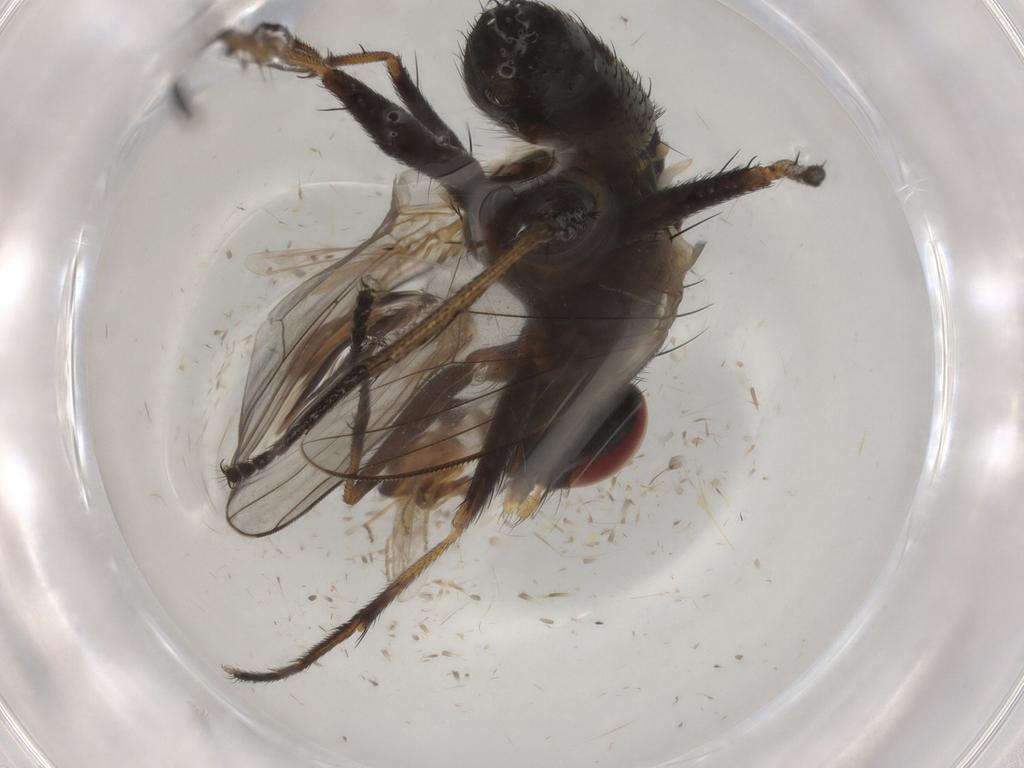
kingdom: Animalia
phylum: Arthropoda
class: Insecta
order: Diptera
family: Muscidae
